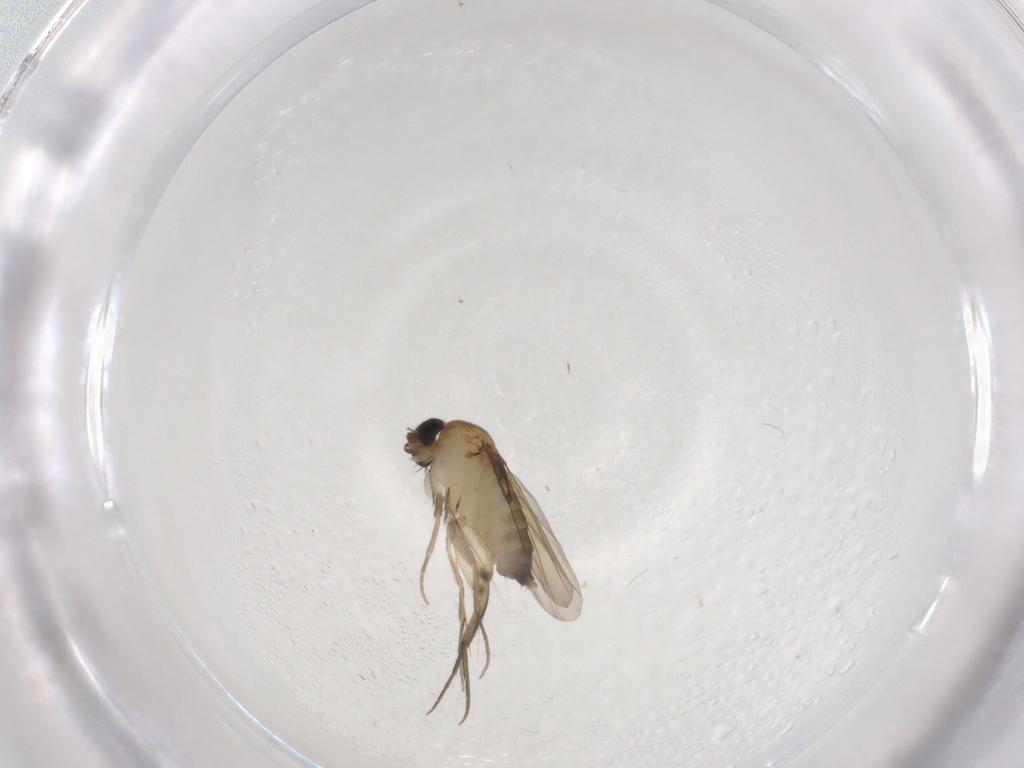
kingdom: Animalia
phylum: Arthropoda
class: Insecta
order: Diptera
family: Phoridae
